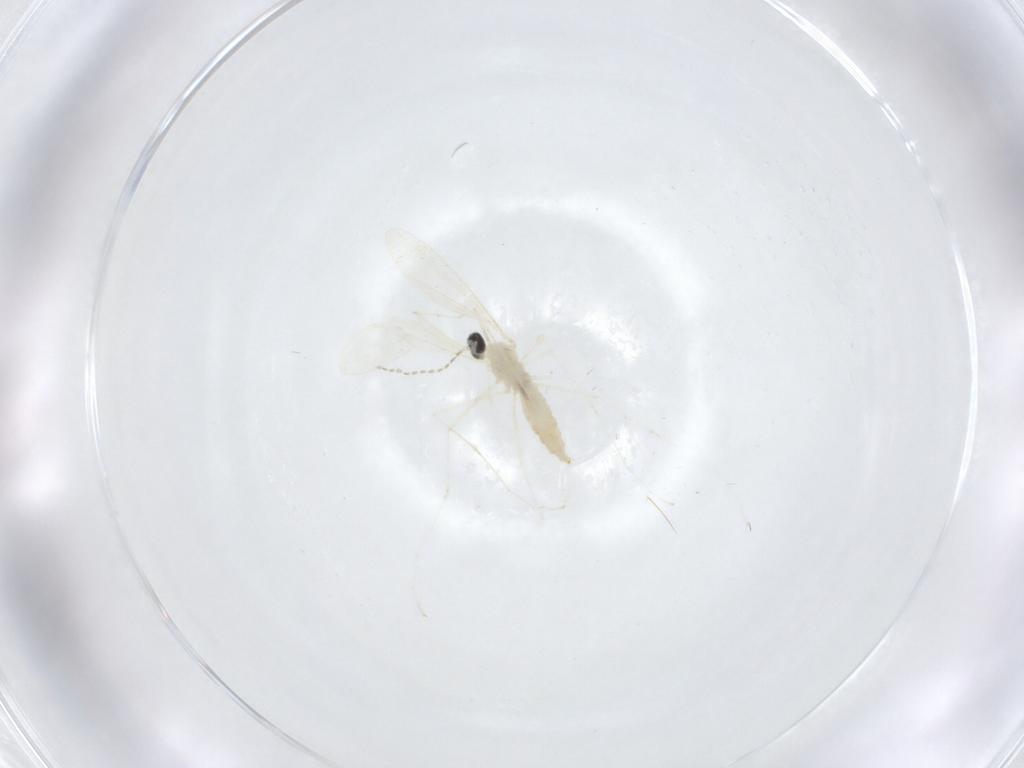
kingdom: Animalia
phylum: Arthropoda
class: Insecta
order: Diptera
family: Cecidomyiidae
